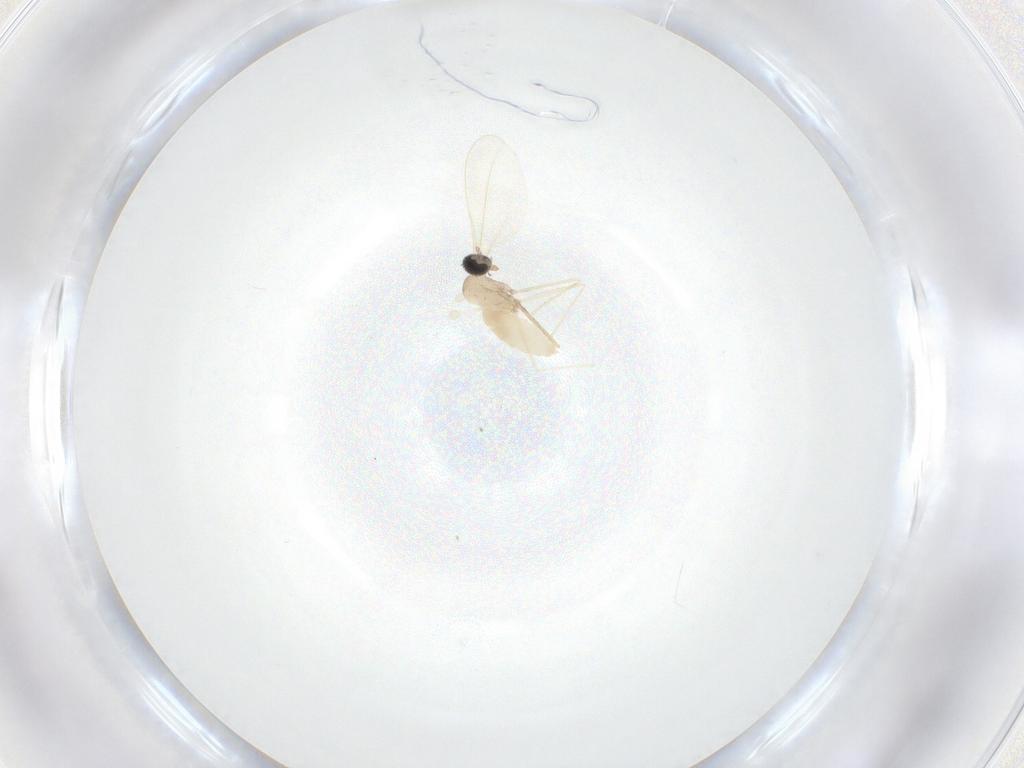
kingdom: Animalia
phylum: Arthropoda
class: Insecta
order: Diptera
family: Cecidomyiidae
